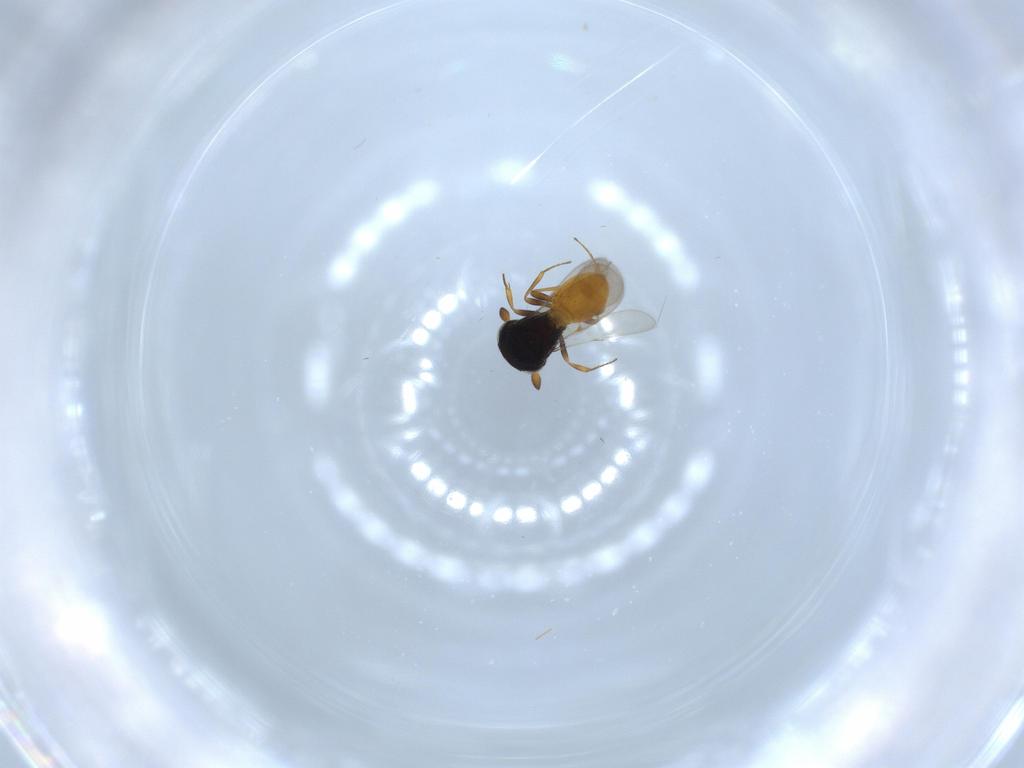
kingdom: Animalia
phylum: Arthropoda
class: Insecta
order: Hymenoptera
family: Scelionidae
